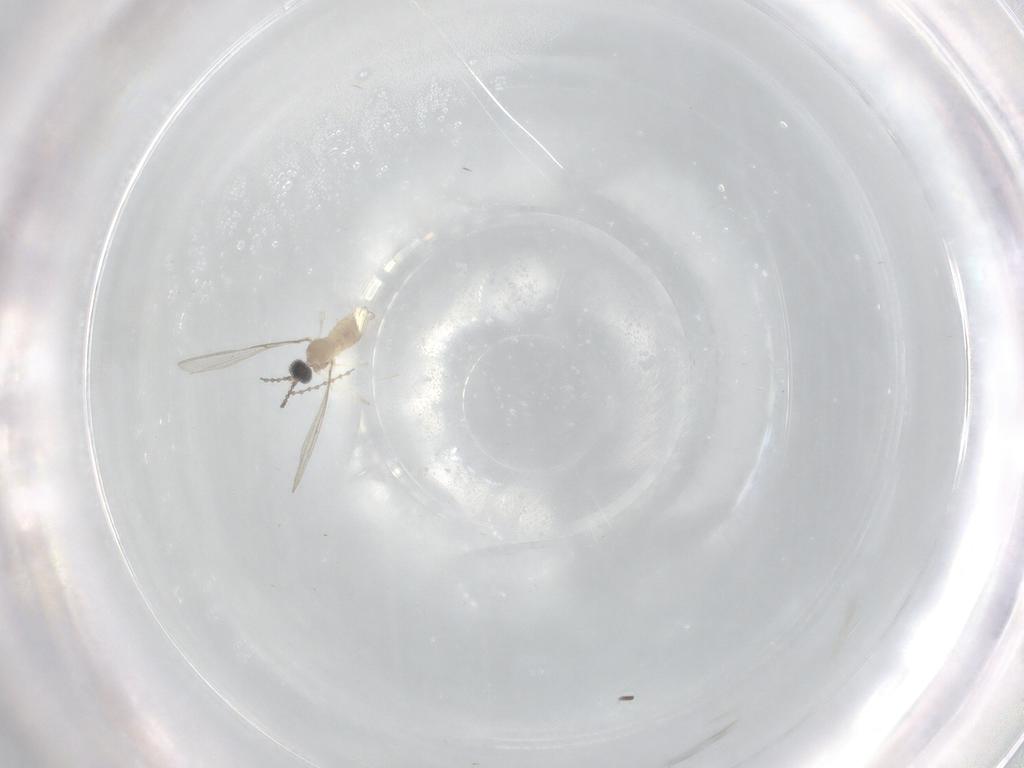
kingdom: Animalia
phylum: Arthropoda
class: Insecta
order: Diptera
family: Cecidomyiidae
